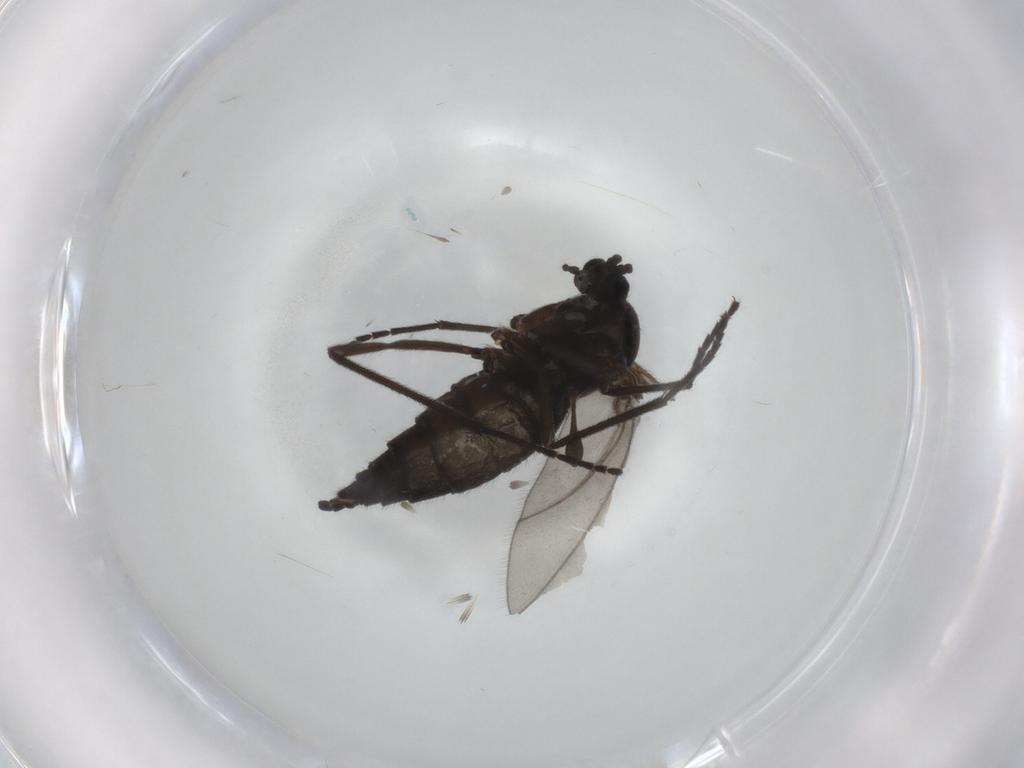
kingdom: Animalia
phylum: Arthropoda
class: Insecta
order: Diptera
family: Sciaridae
